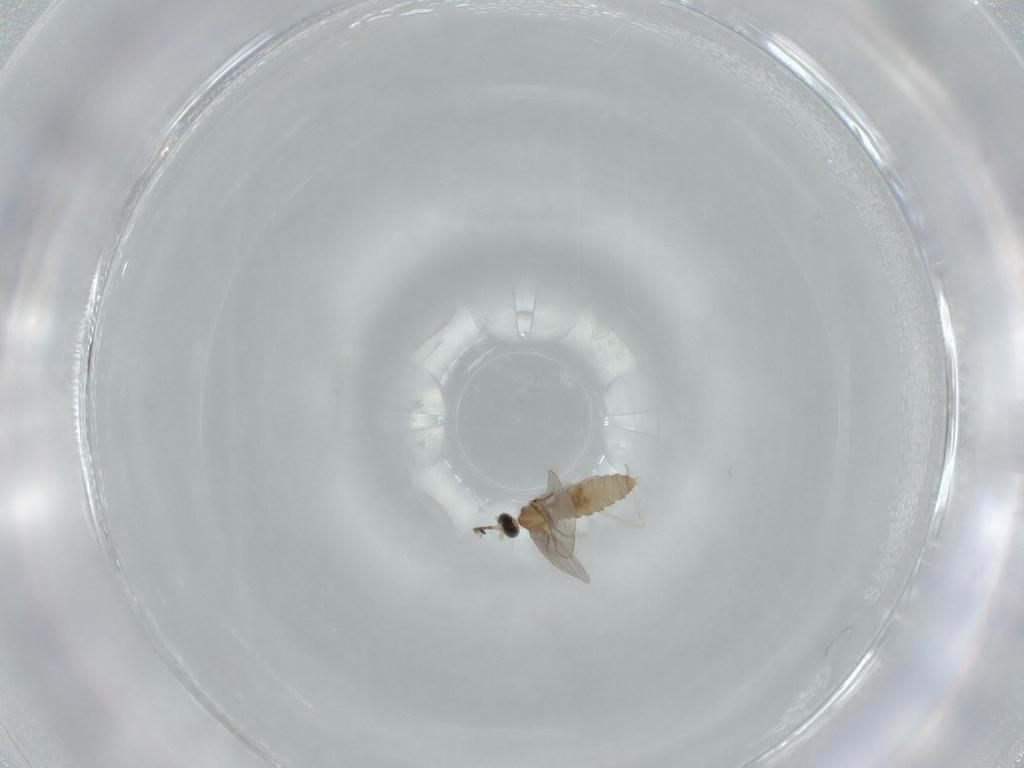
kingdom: Animalia
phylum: Arthropoda
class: Insecta
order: Diptera
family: Cecidomyiidae
